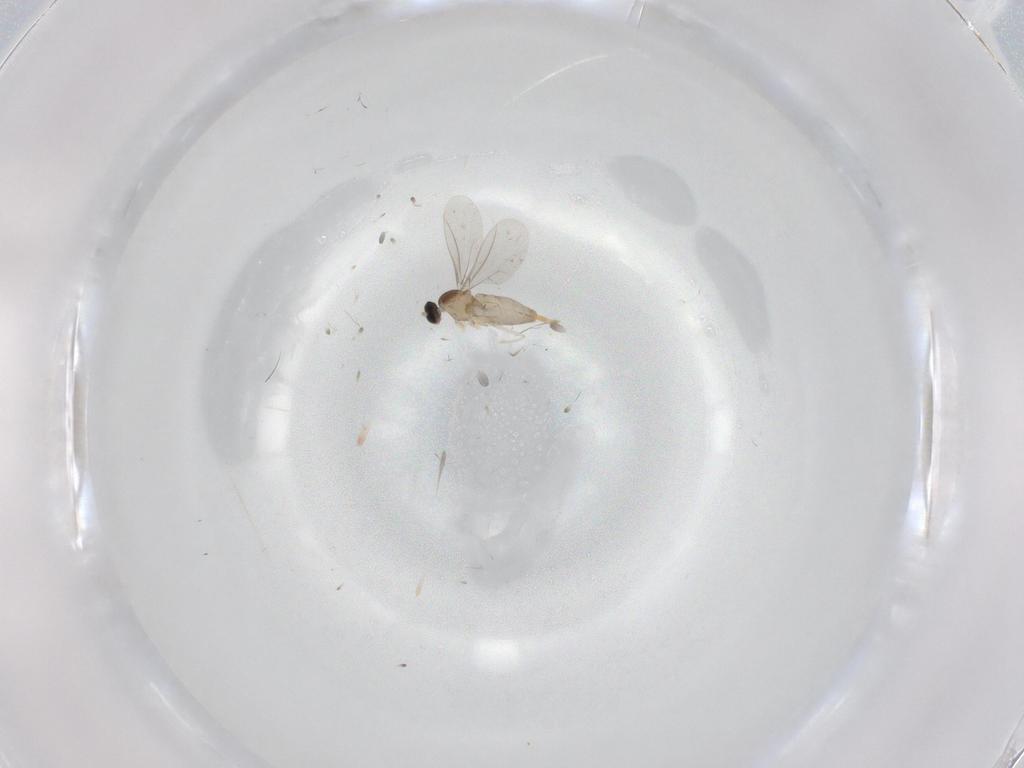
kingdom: Animalia
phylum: Arthropoda
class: Insecta
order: Diptera
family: Cecidomyiidae
